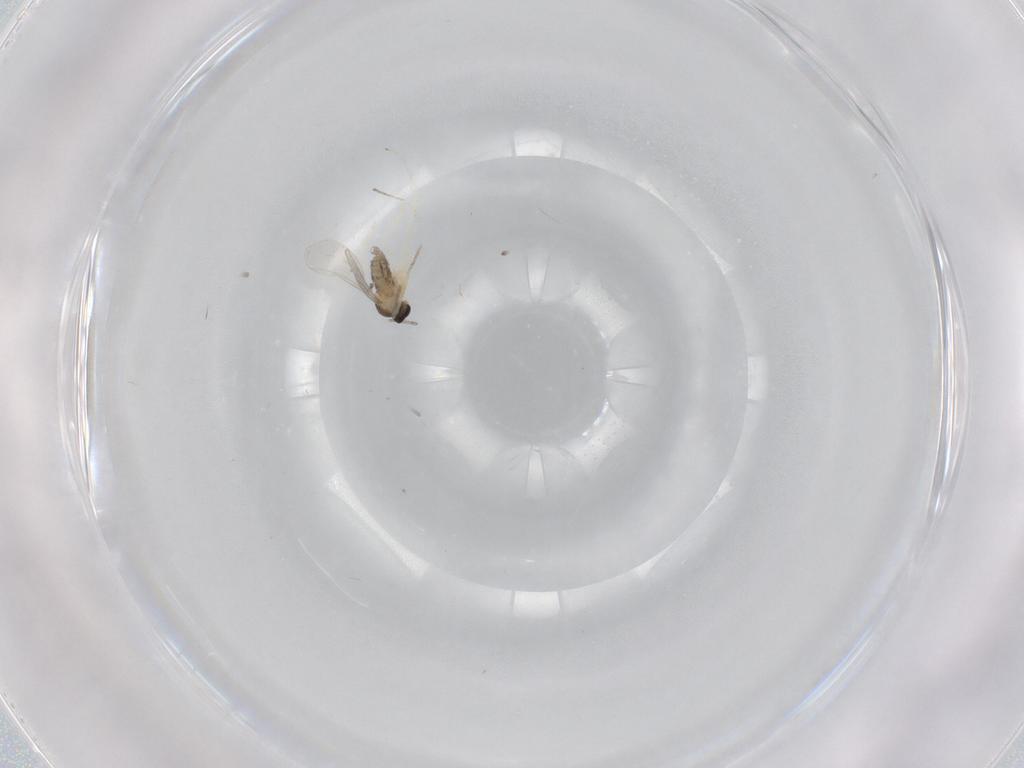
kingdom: Animalia
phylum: Arthropoda
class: Insecta
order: Diptera
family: Cecidomyiidae
